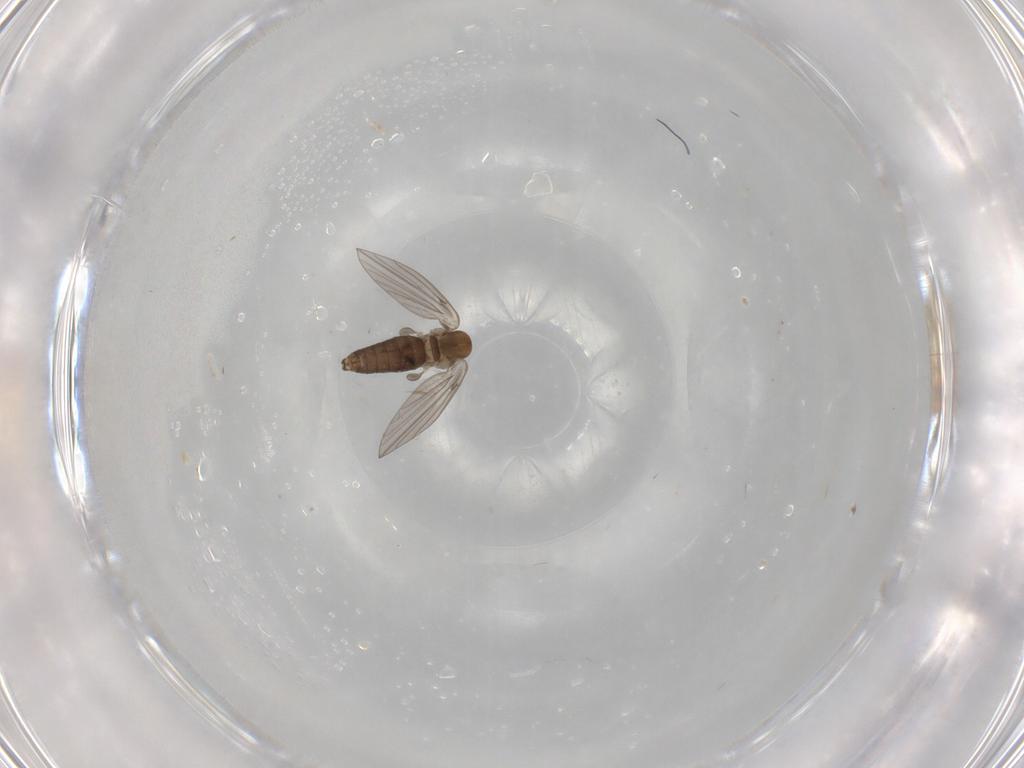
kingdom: Animalia
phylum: Arthropoda
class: Insecta
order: Diptera
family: Phoridae
